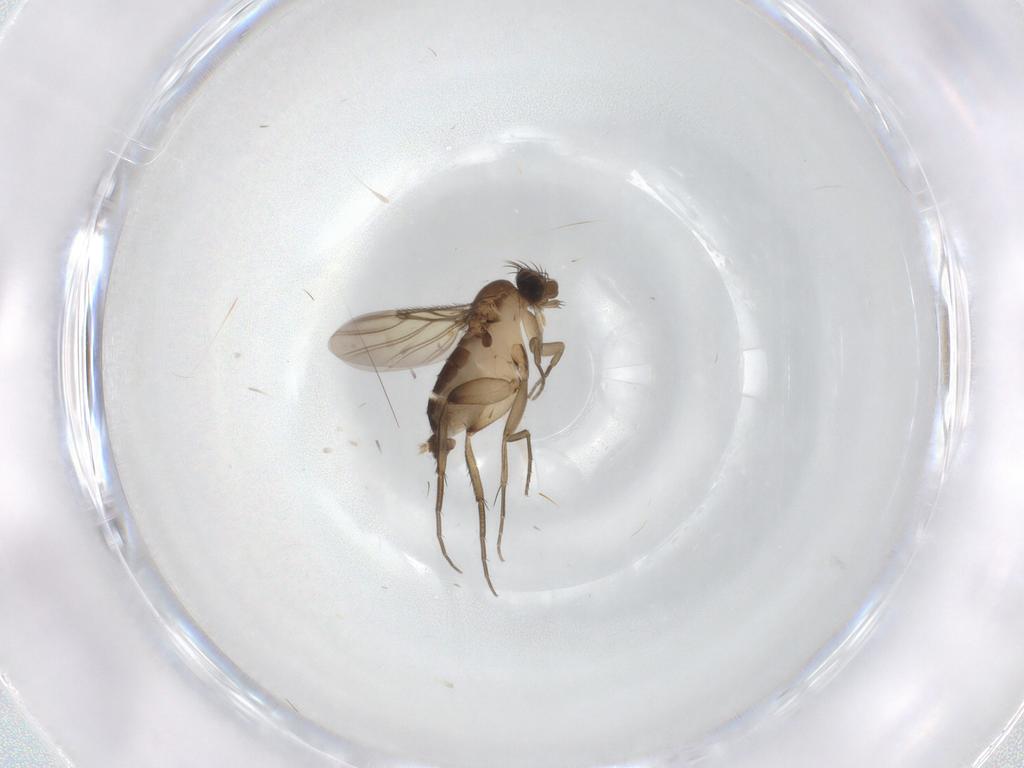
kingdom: Animalia
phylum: Arthropoda
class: Insecta
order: Diptera
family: Phoridae
